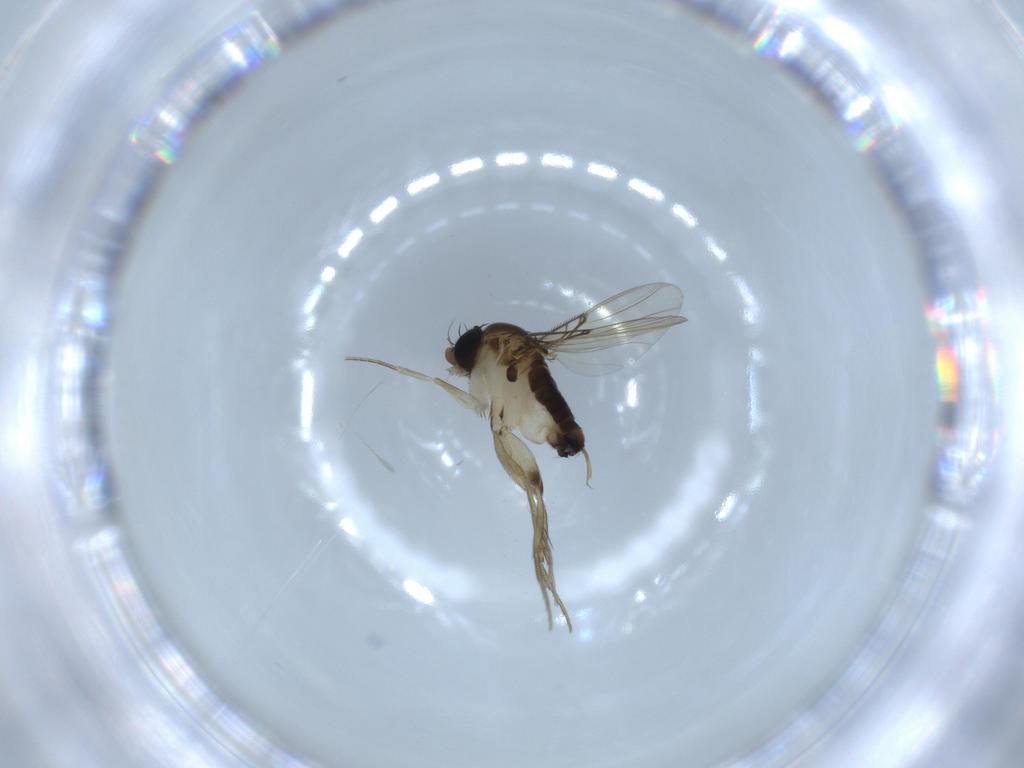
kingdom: Animalia
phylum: Arthropoda
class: Insecta
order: Diptera
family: Phoridae
